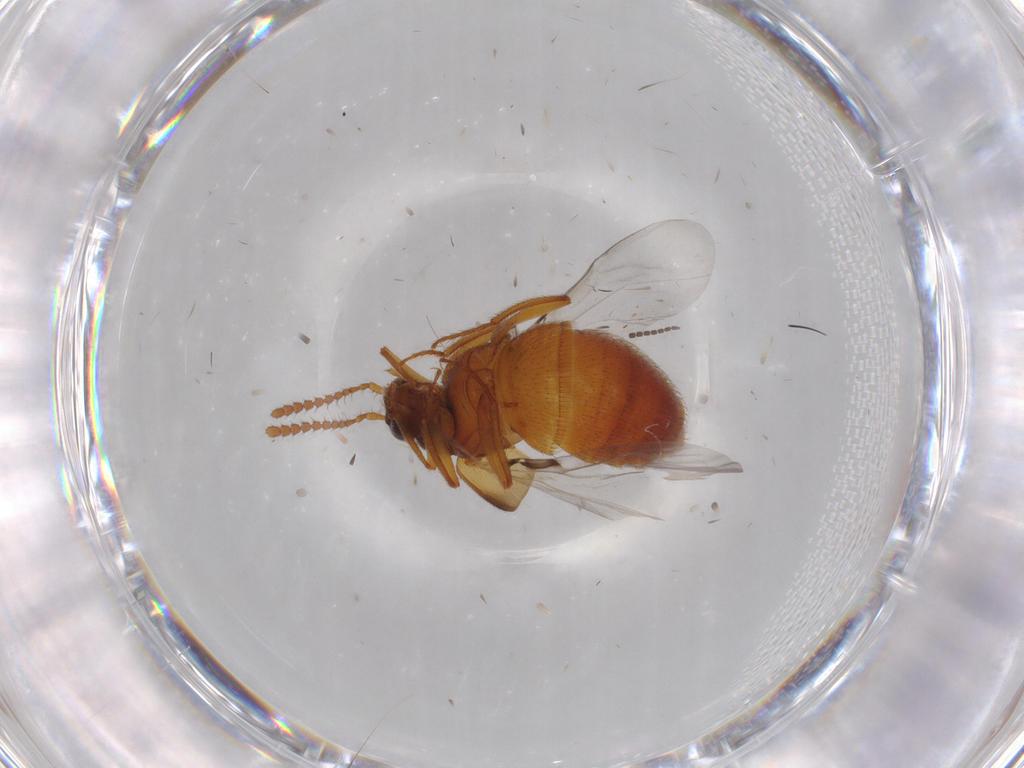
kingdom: Animalia
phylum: Arthropoda
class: Insecta
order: Coleoptera
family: Staphylinidae
